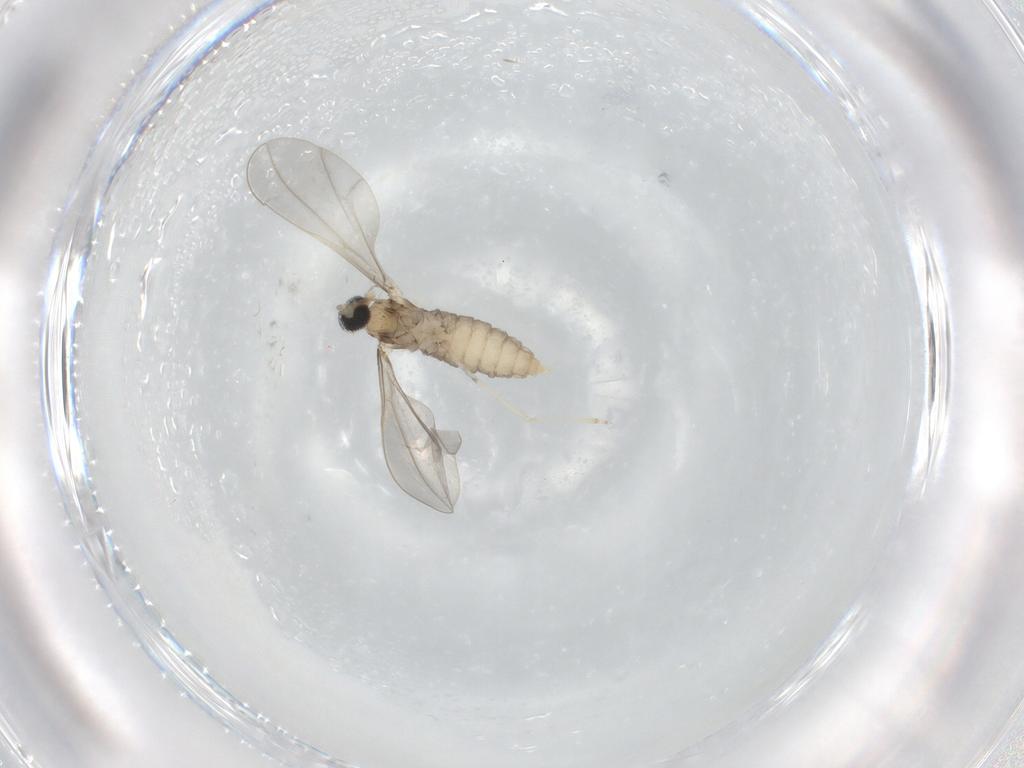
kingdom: Animalia
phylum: Arthropoda
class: Insecta
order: Diptera
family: Cecidomyiidae
